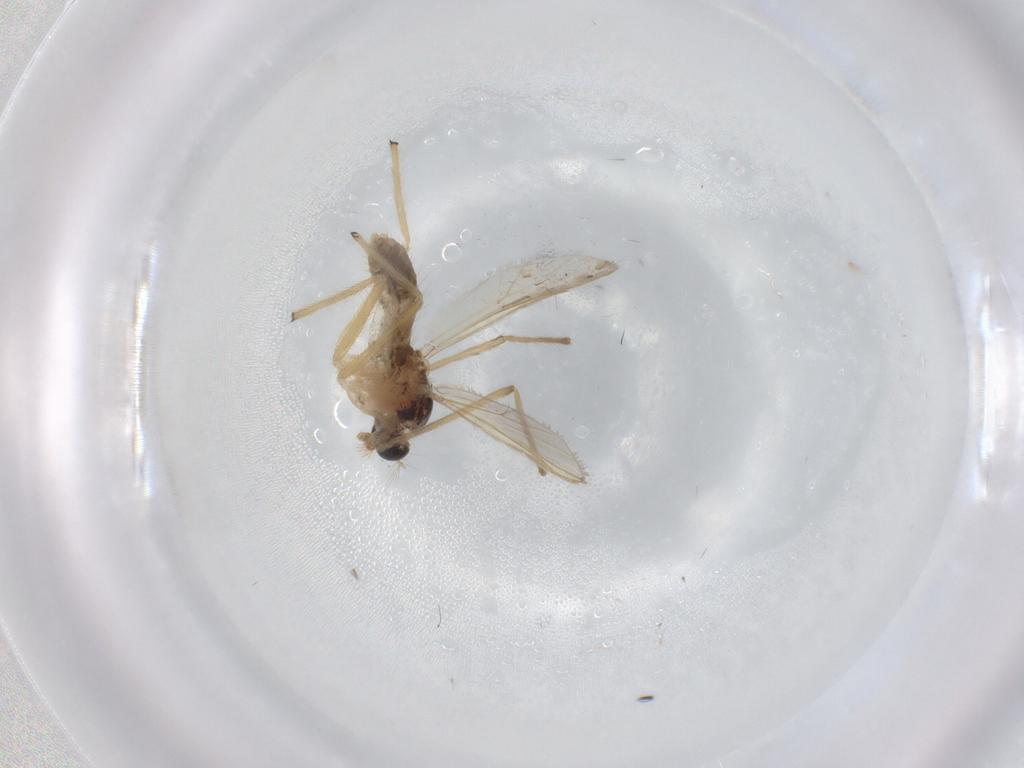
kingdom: Animalia
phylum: Arthropoda
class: Insecta
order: Diptera
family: Chironomidae
